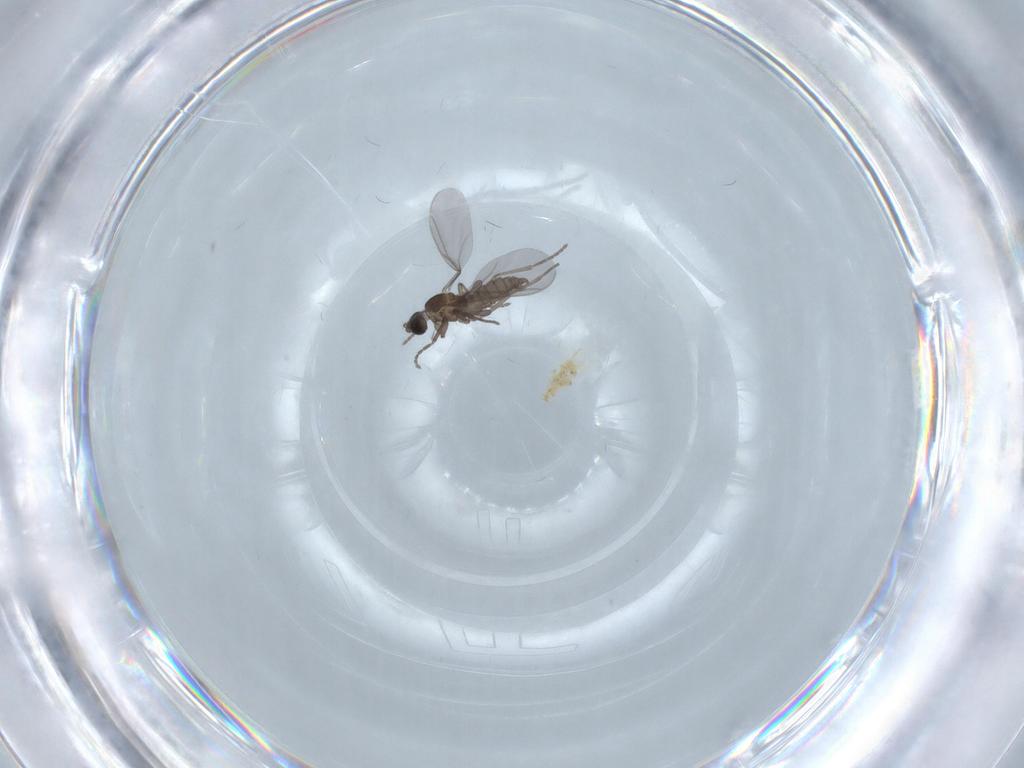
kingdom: Animalia
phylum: Arthropoda
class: Insecta
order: Diptera
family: Sciaridae
